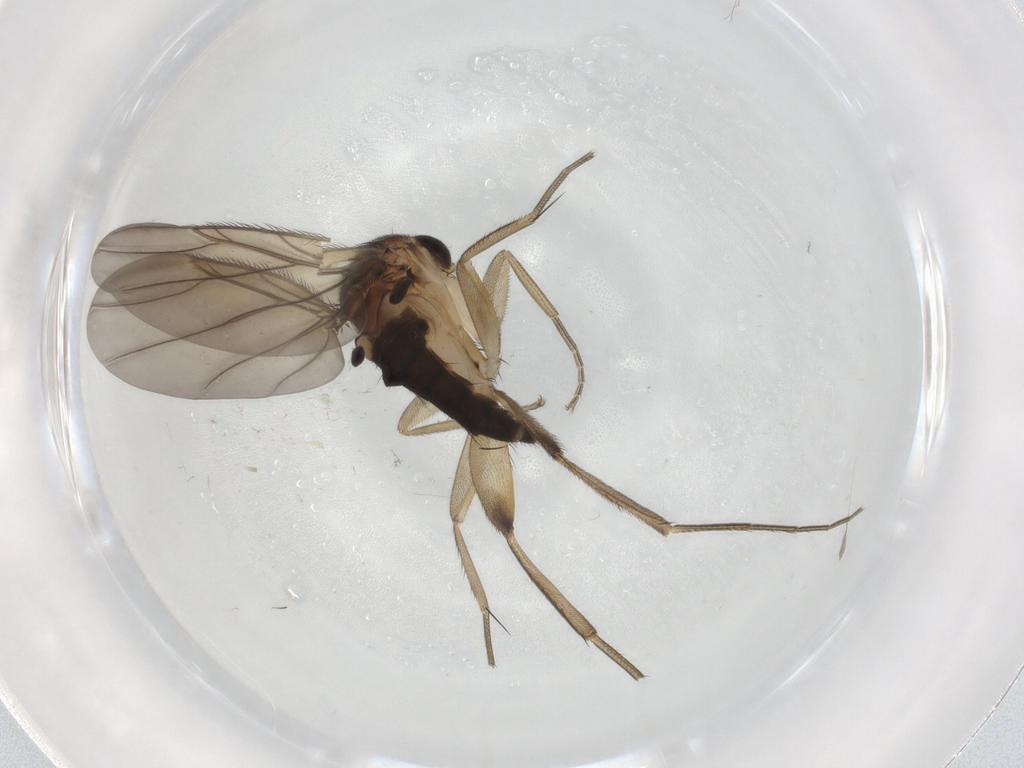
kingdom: Animalia
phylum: Arthropoda
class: Insecta
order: Diptera
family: Phoridae
